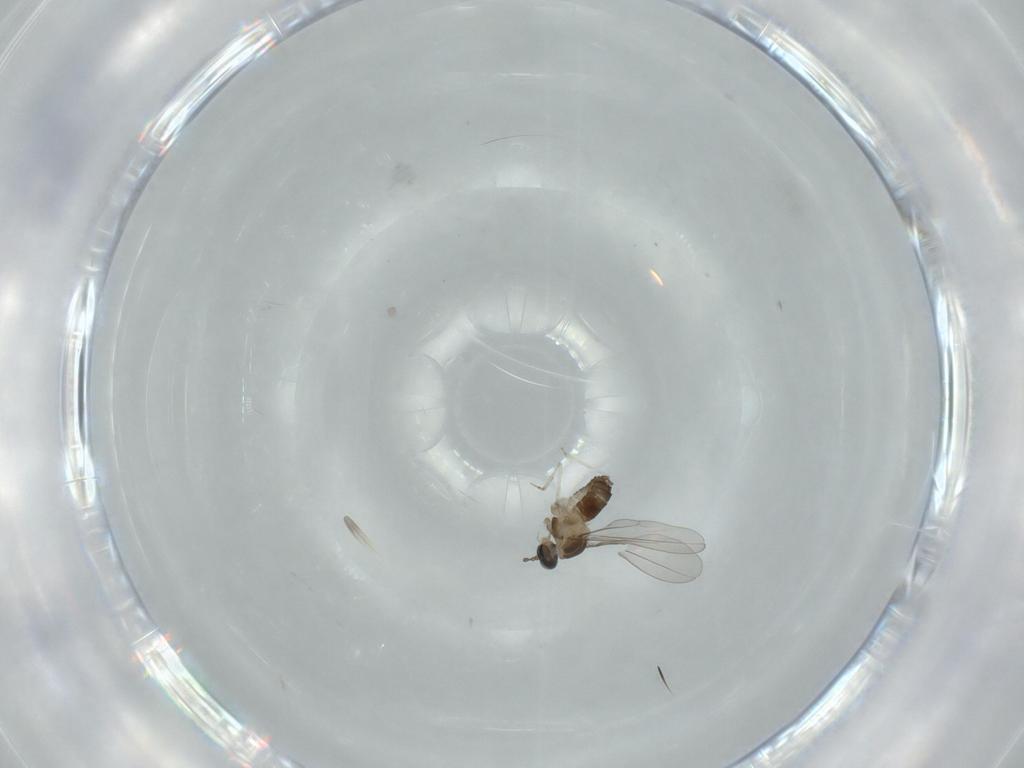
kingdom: Animalia
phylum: Arthropoda
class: Insecta
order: Diptera
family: Cecidomyiidae
